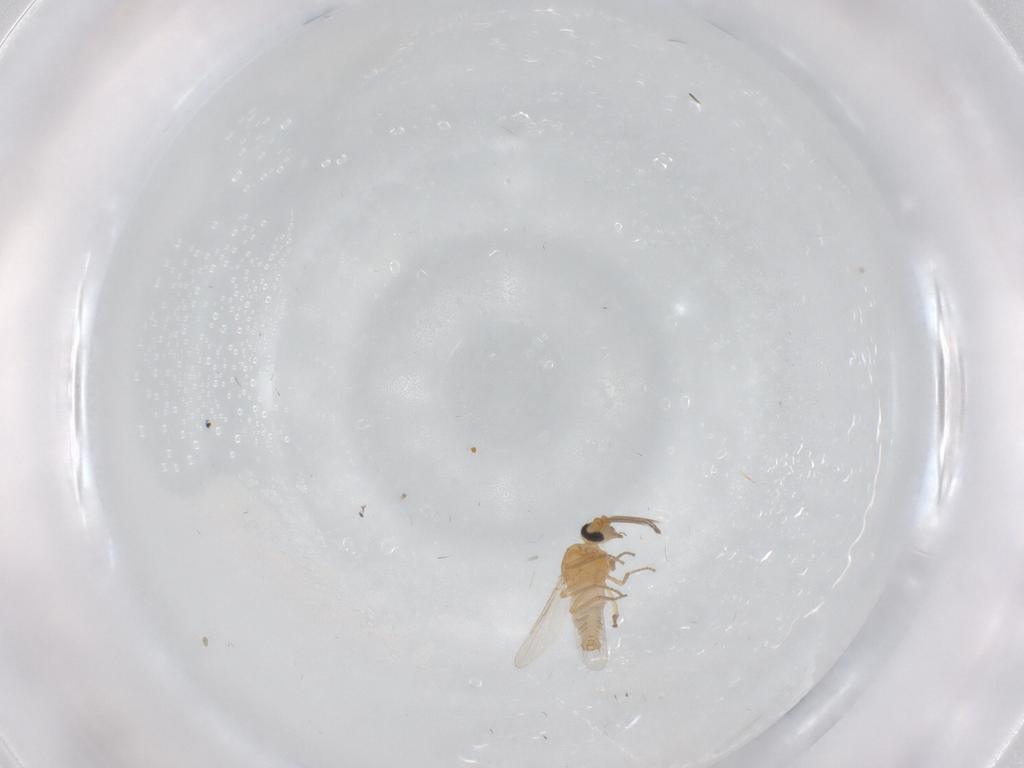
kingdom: Animalia
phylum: Arthropoda
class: Insecta
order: Diptera
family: Ceratopogonidae
